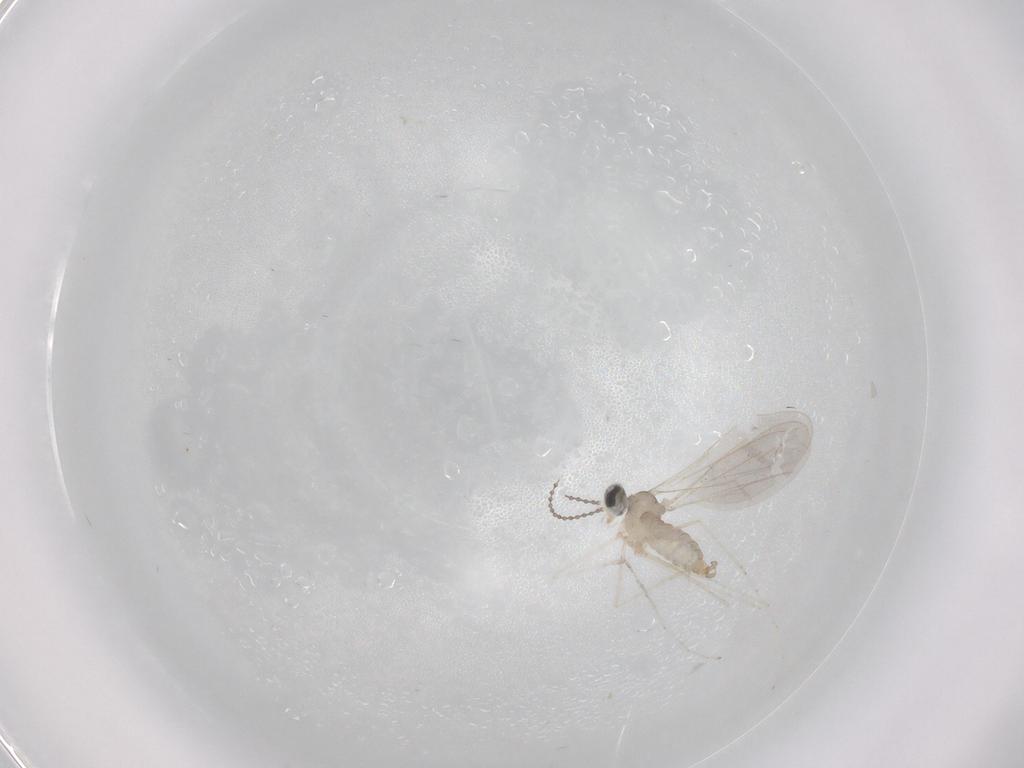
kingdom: Animalia
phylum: Arthropoda
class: Insecta
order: Diptera
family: Cecidomyiidae
